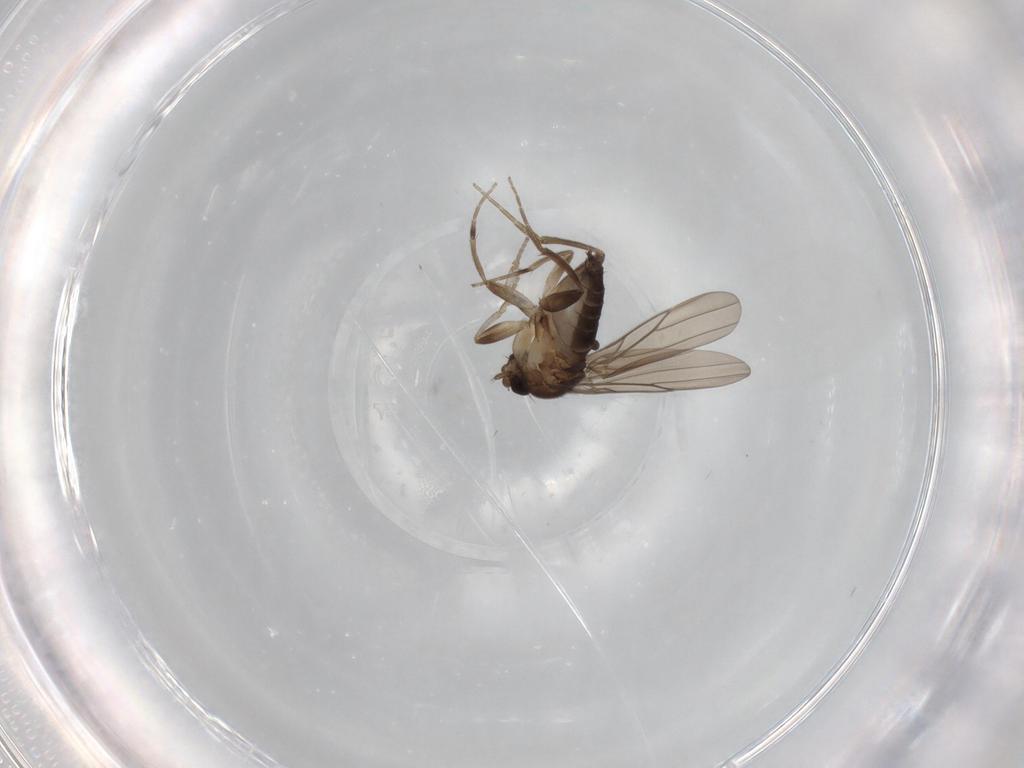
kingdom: Animalia
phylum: Arthropoda
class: Insecta
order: Diptera
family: Phoridae
